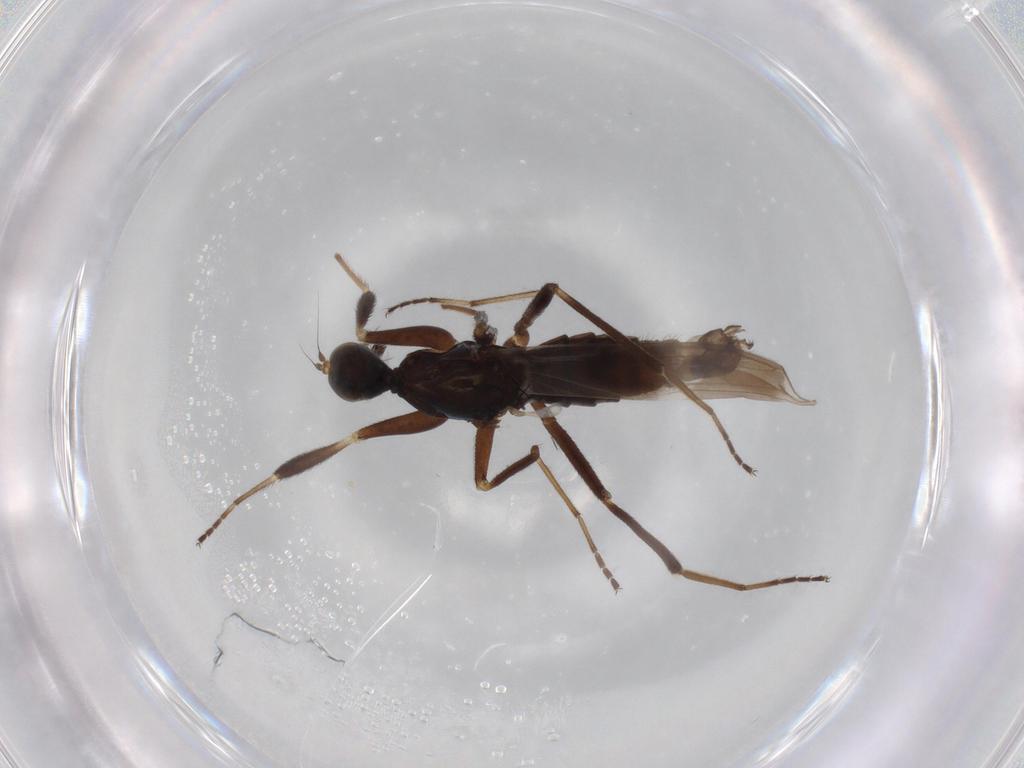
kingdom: Animalia
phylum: Arthropoda
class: Insecta
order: Diptera
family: Hybotidae
